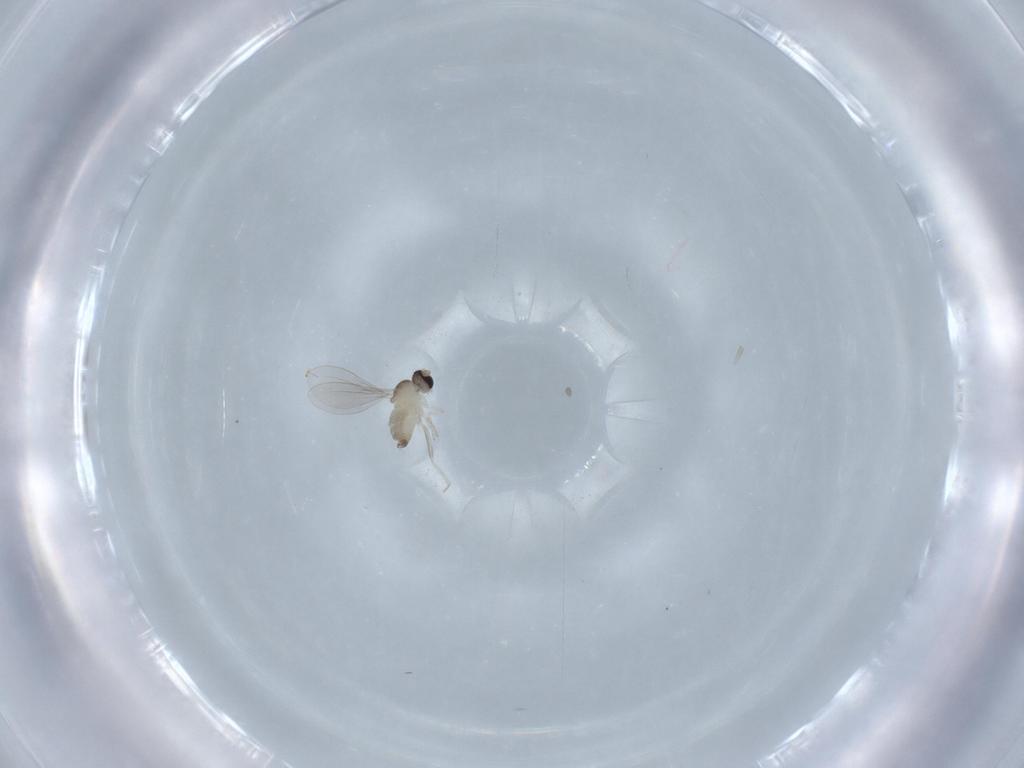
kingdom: Animalia
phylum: Arthropoda
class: Insecta
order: Diptera
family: Cecidomyiidae
